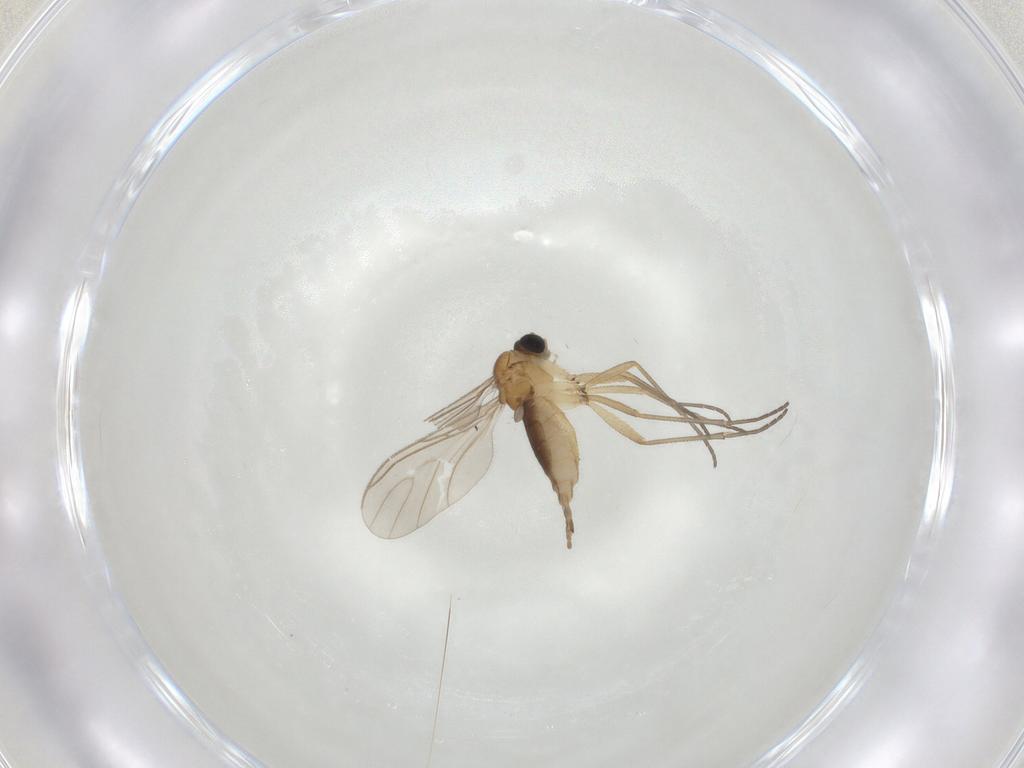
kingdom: Animalia
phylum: Arthropoda
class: Insecta
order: Diptera
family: Sciaridae
